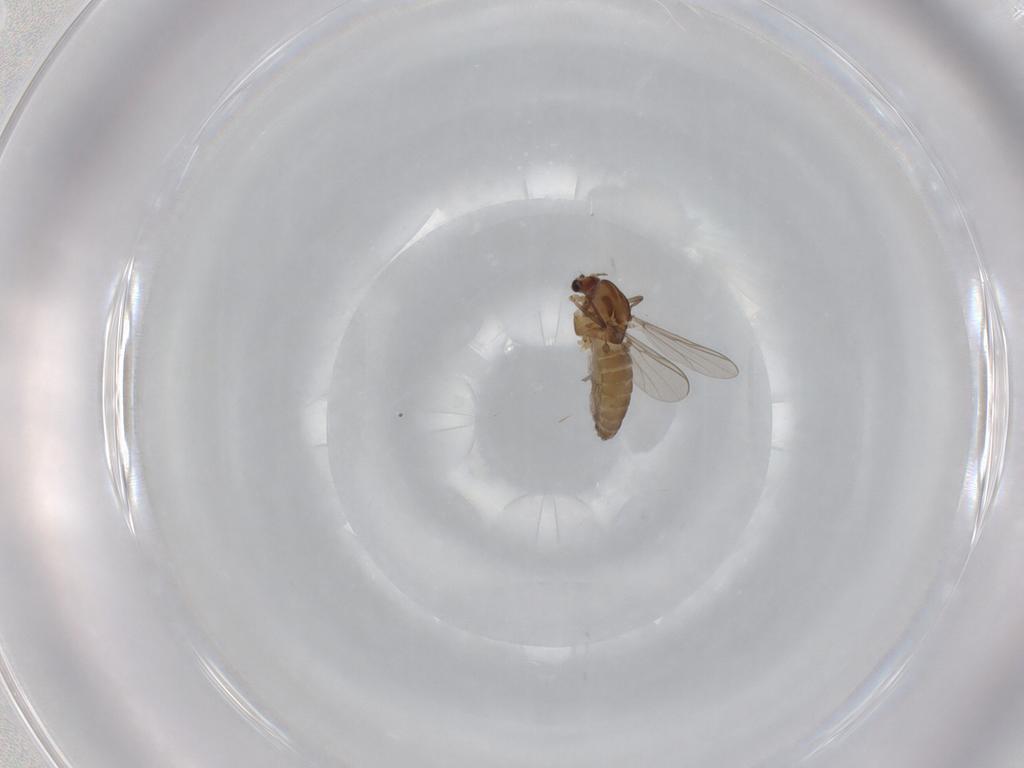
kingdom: Animalia
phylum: Arthropoda
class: Insecta
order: Diptera
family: Chironomidae
